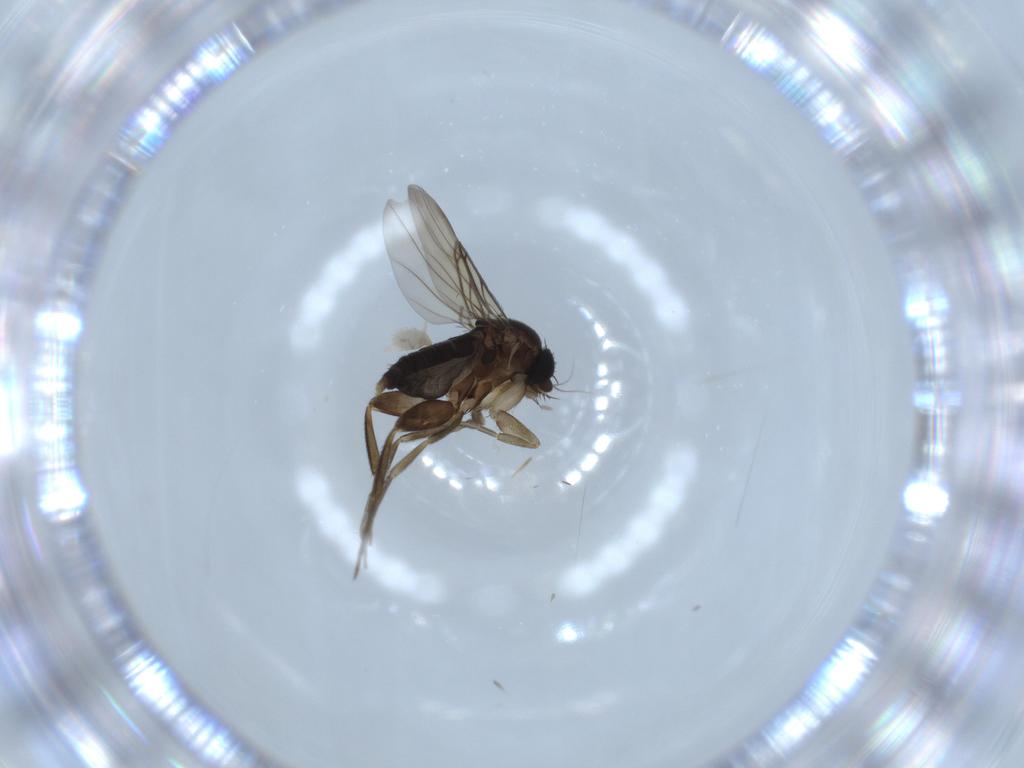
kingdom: Animalia
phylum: Arthropoda
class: Insecta
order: Diptera
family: Phoridae
